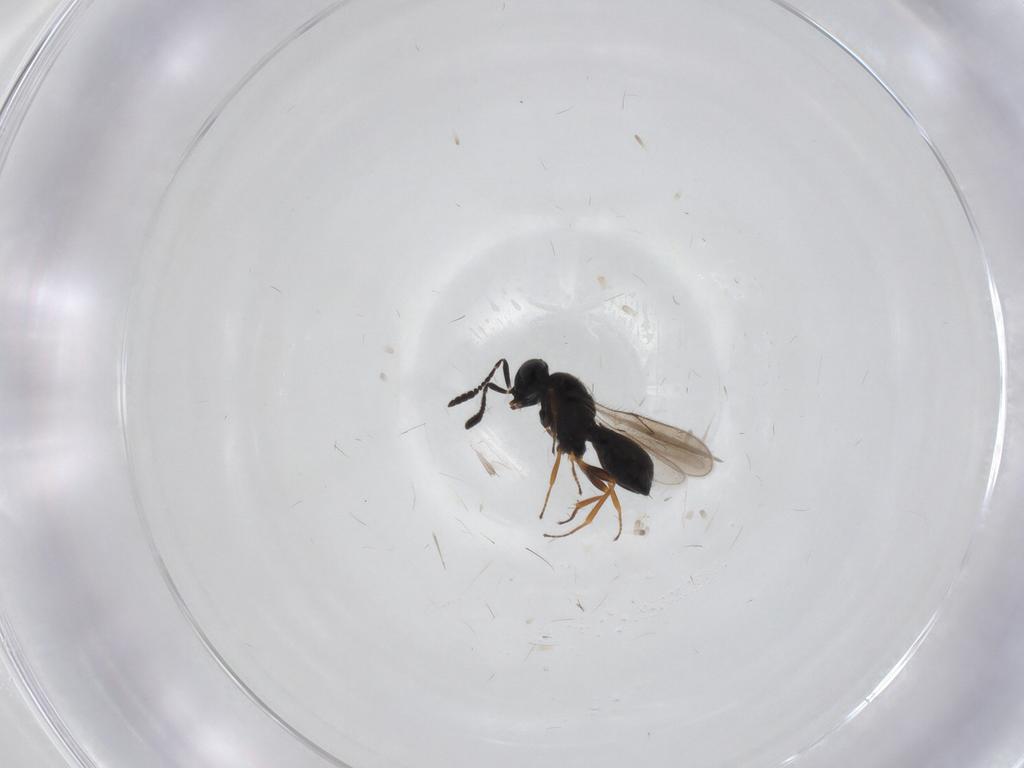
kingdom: Animalia
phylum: Arthropoda
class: Insecta
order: Hymenoptera
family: Scelionidae
